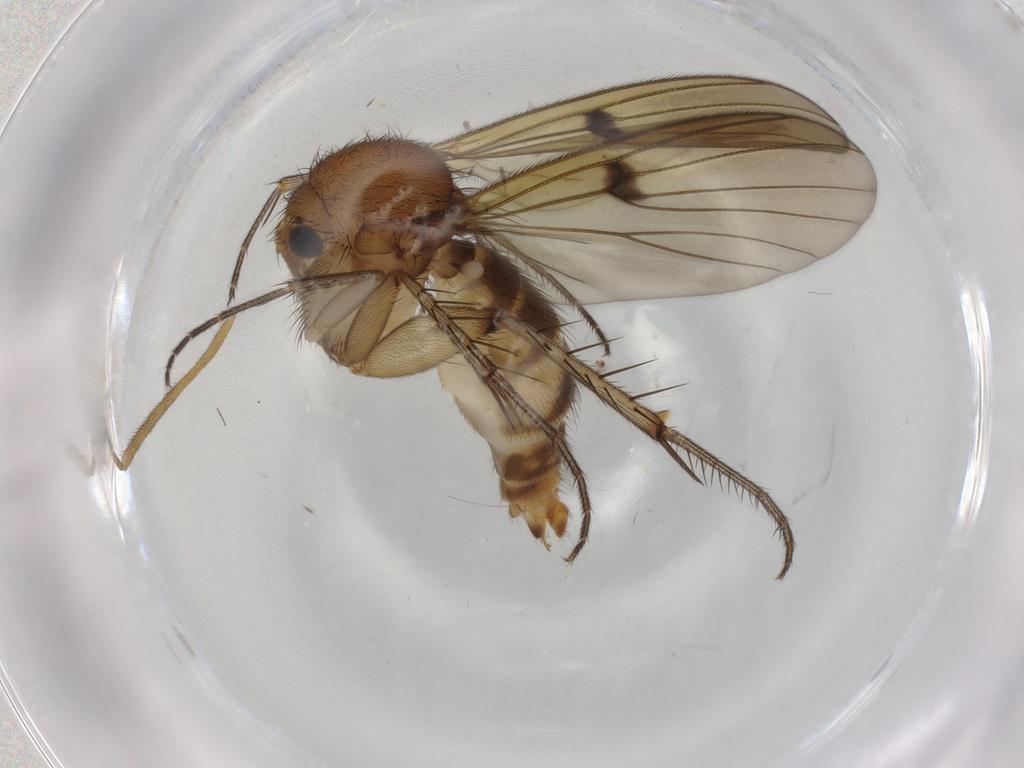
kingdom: Animalia
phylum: Arthropoda
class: Insecta
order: Diptera
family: Mycetophilidae
